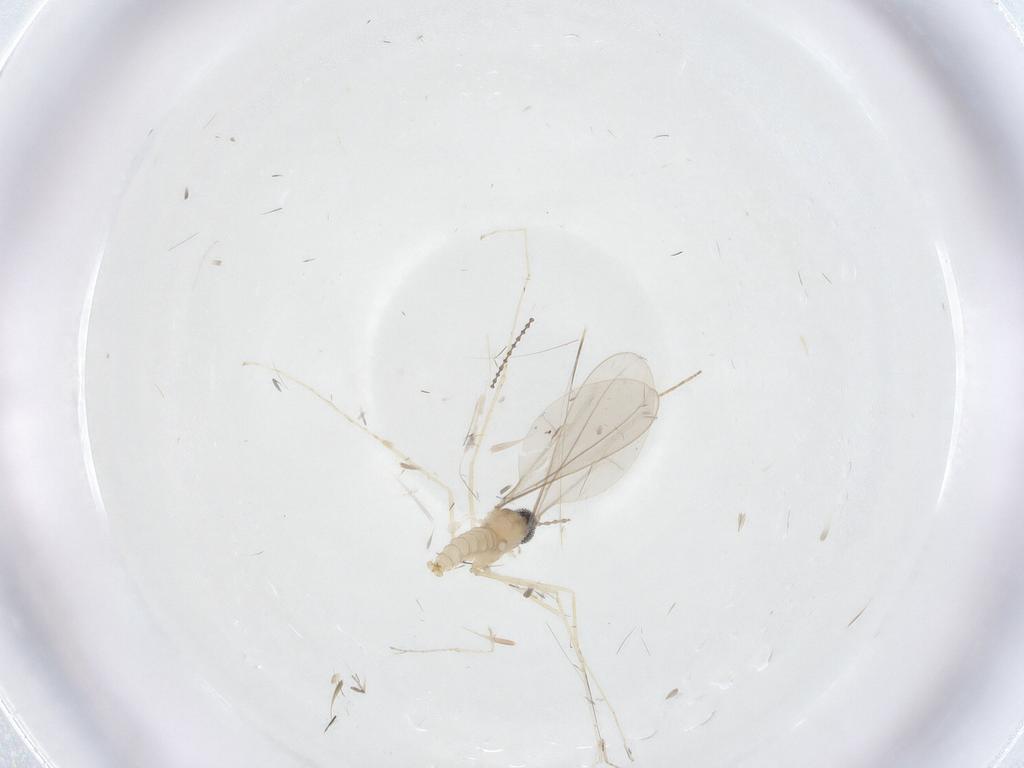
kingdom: Animalia
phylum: Arthropoda
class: Insecta
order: Diptera
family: Cecidomyiidae
